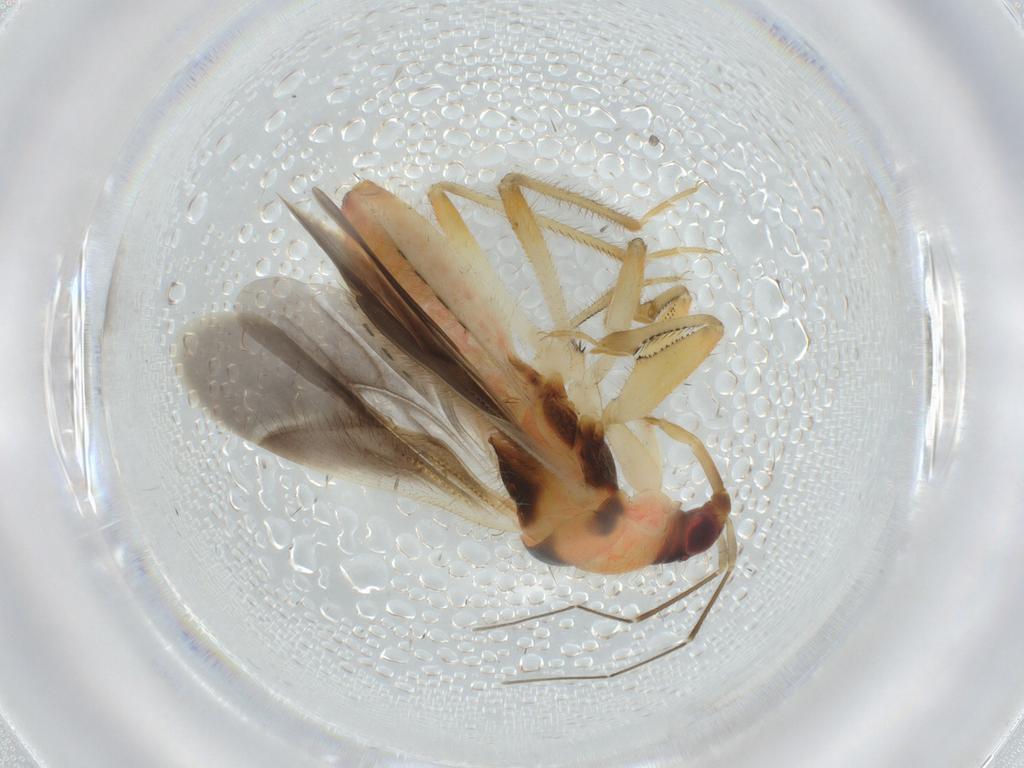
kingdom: Animalia
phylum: Arthropoda
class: Insecta
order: Hemiptera
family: Nabidae
